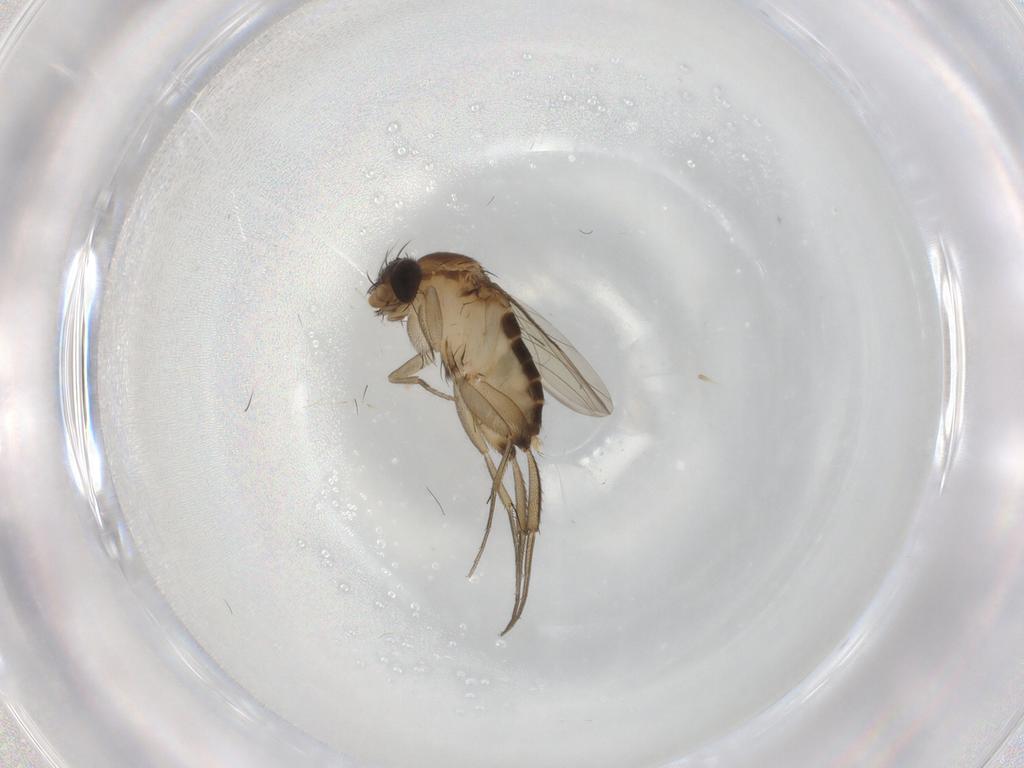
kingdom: Animalia
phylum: Arthropoda
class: Insecta
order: Diptera
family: Phoridae
